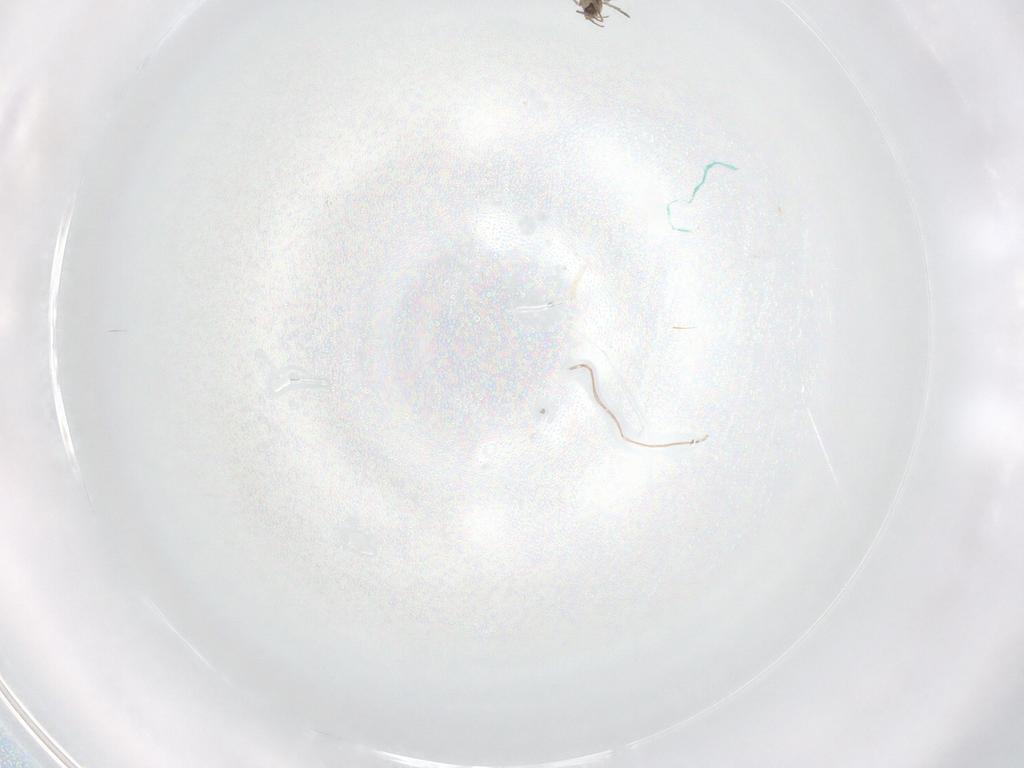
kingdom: Animalia
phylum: Arthropoda
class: Insecta
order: Hymenoptera
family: Mymaridae
